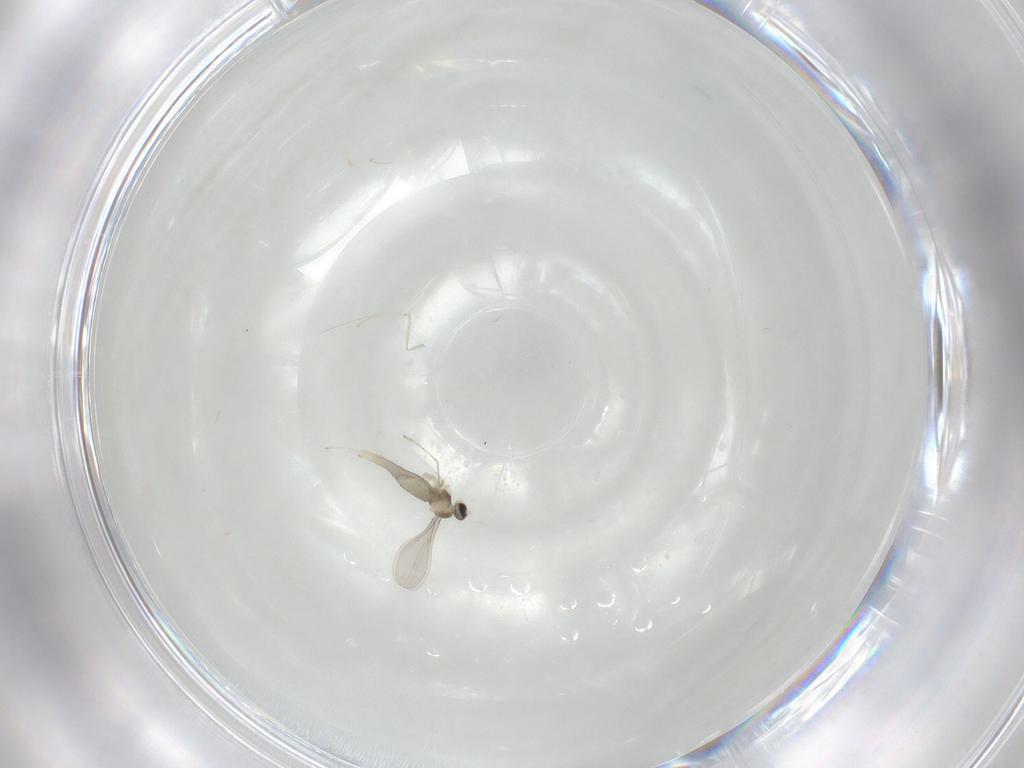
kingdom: Animalia
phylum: Arthropoda
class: Insecta
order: Diptera
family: Cecidomyiidae
